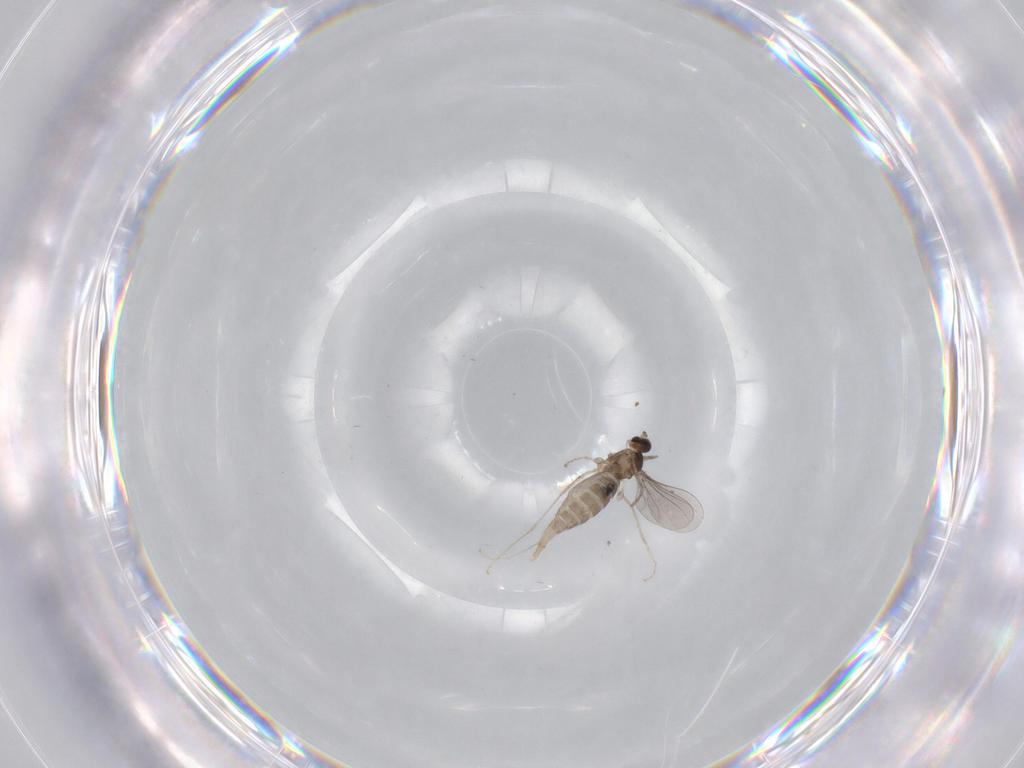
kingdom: Animalia
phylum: Arthropoda
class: Insecta
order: Diptera
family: Chironomidae
